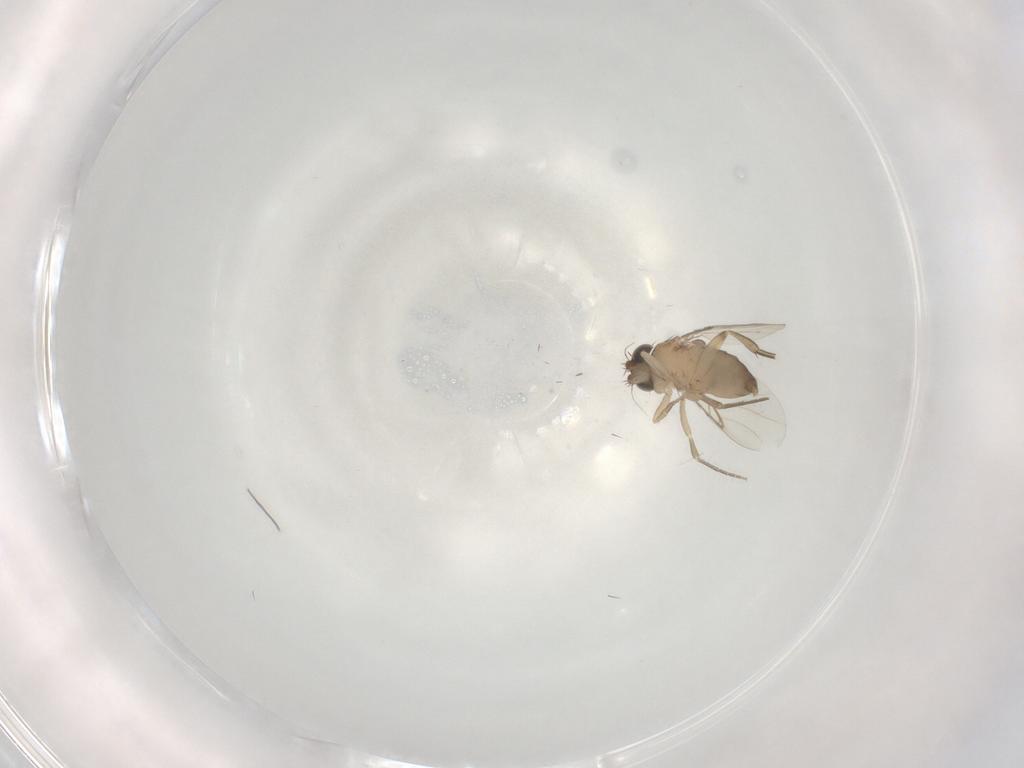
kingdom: Animalia
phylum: Arthropoda
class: Insecta
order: Diptera
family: Phoridae
